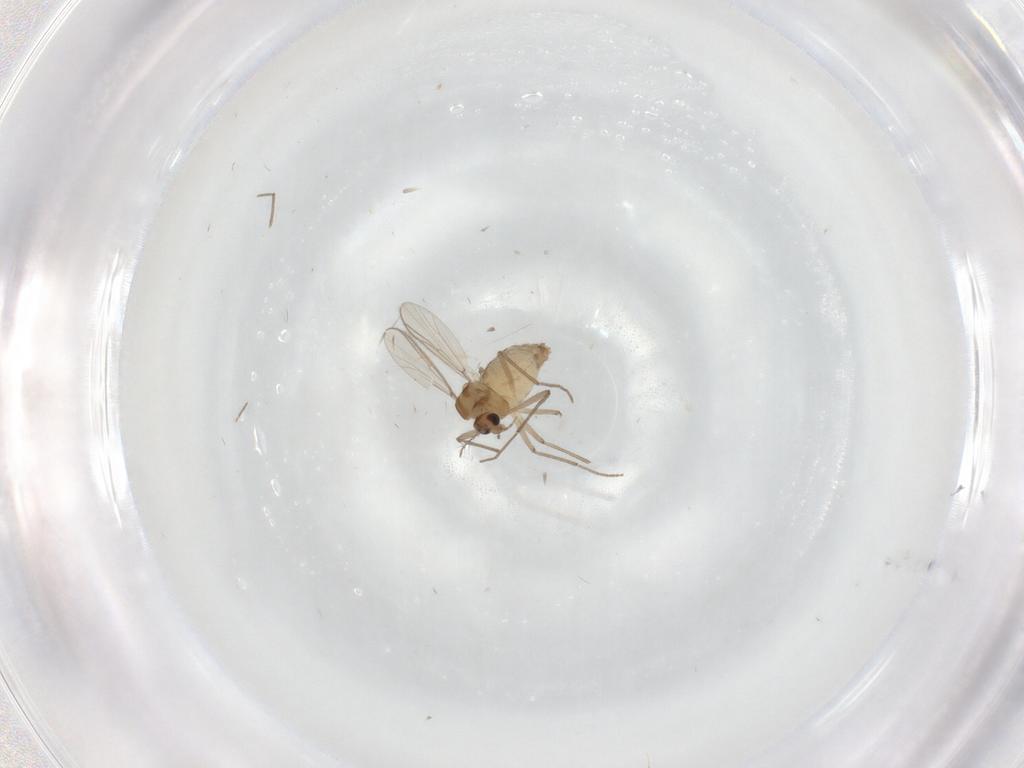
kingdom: Animalia
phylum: Arthropoda
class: Insecta
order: Diptera
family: Chironomidae
